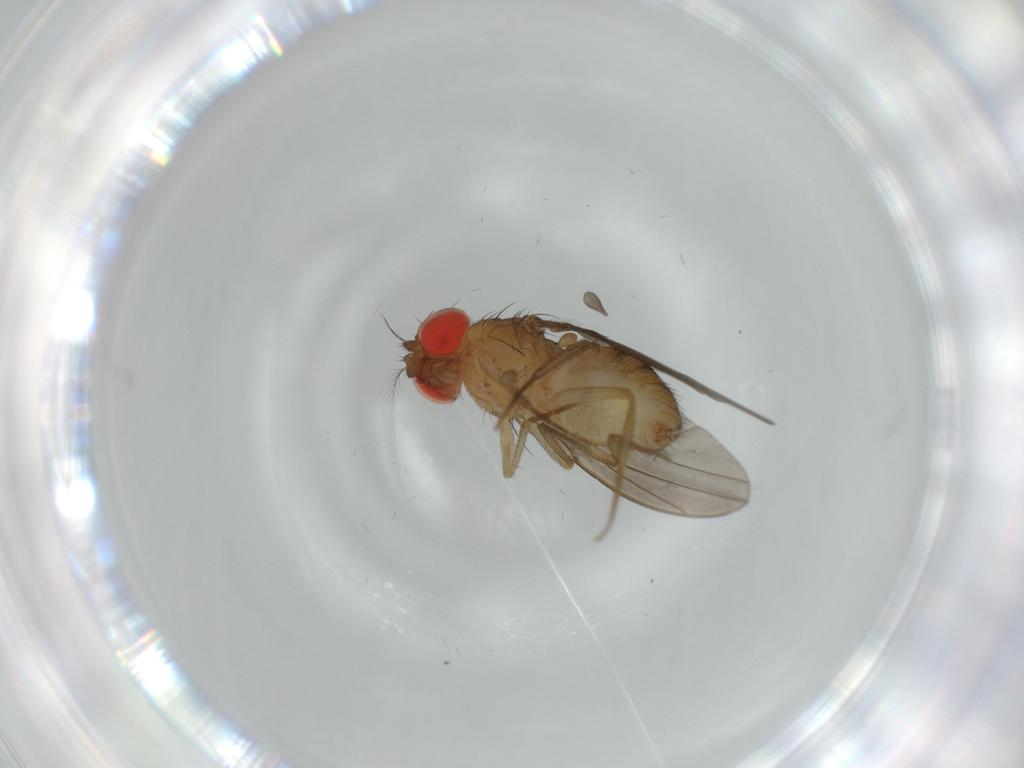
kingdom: Animalia
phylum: Arthropoda
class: Insecta
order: Diptera
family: Drosophilidae
